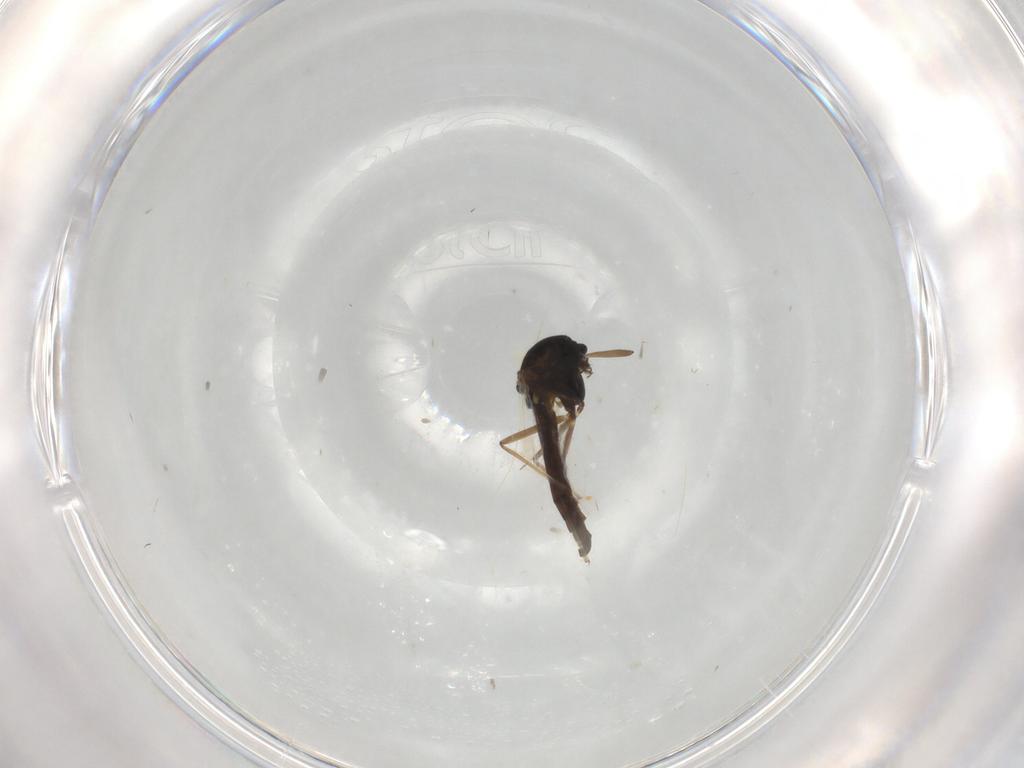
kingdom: Animalia
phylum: Arthropoda
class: Insecta
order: Diptera
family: Chironomidae
